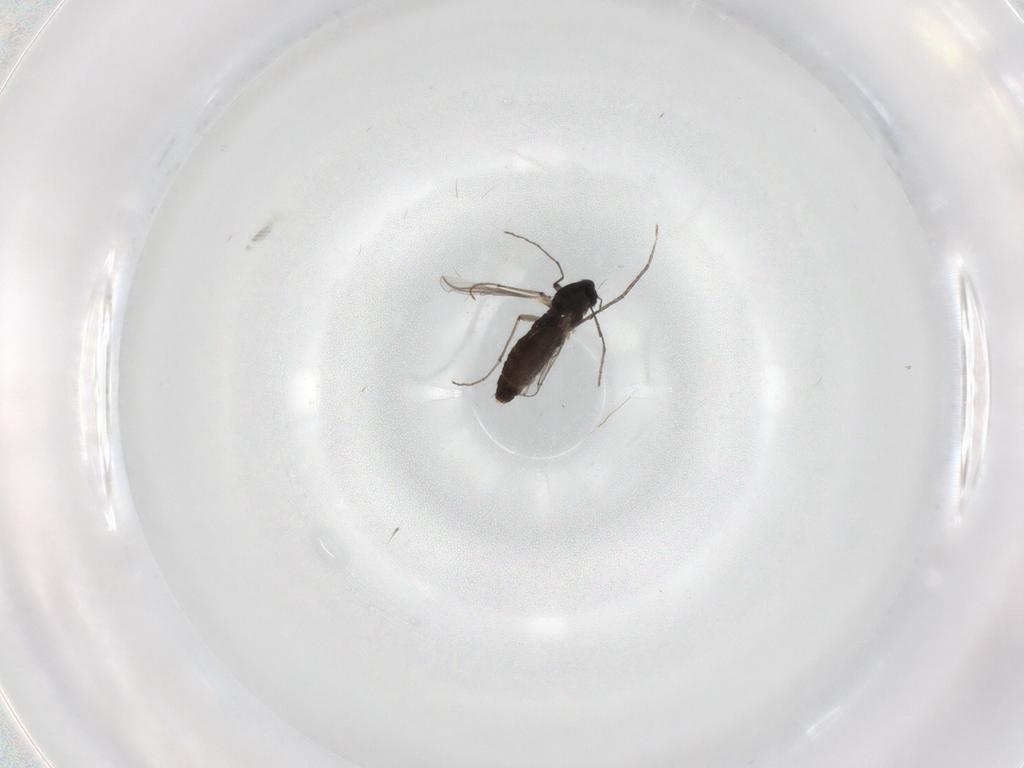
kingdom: Animalia
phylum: Arthropoda
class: Insecta
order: Diptera
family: Chironomidae
